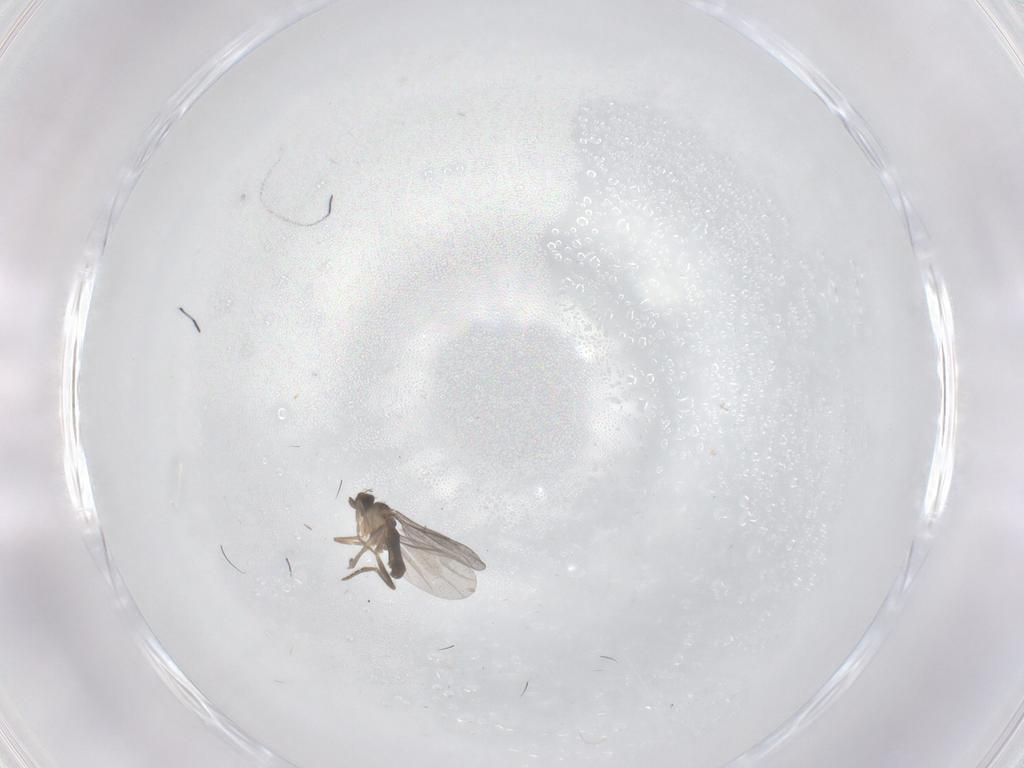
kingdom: Animalia
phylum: Arthropoda
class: Insecta
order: Diptera
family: Cecidomyiidae
